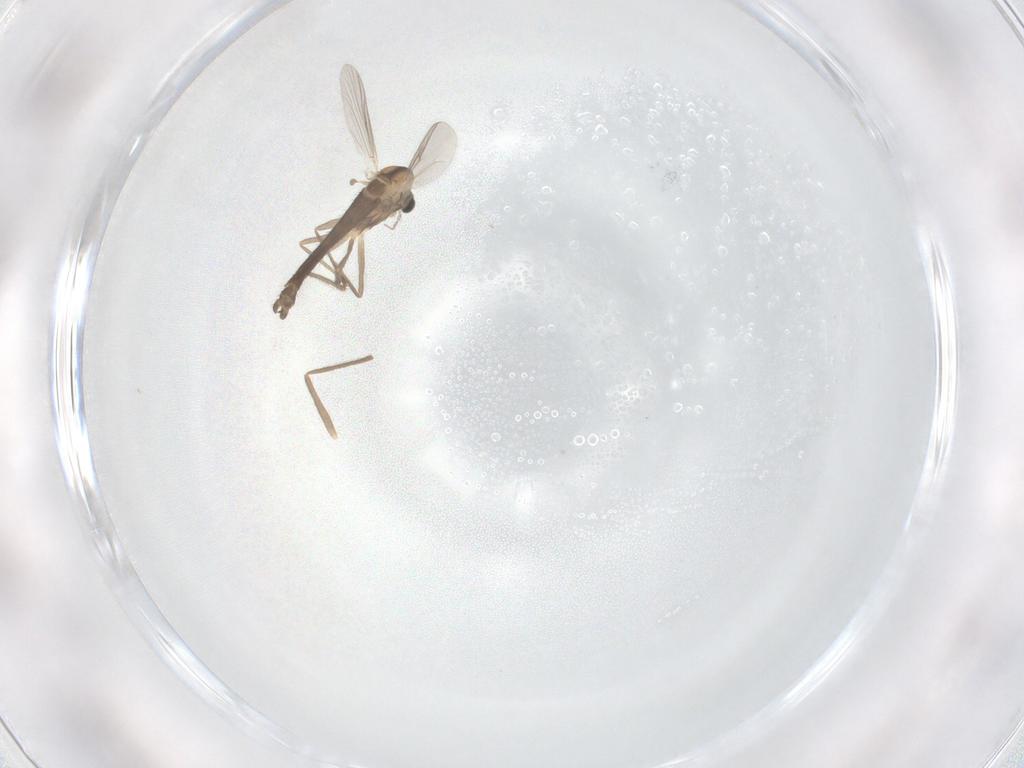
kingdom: Animalia
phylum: Arthropoda
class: Insecta
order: Diptera
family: Chironomidae
